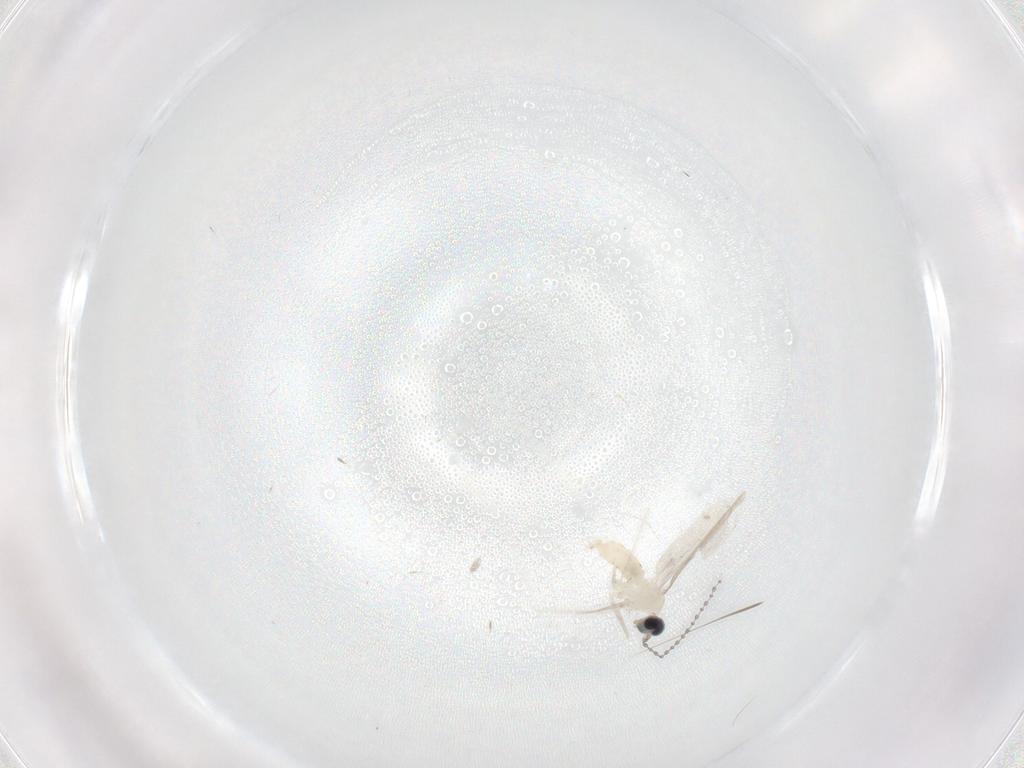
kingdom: Animalia
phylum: Arthropoda
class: Insecta
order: Diptera
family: Cecidomyiidae
